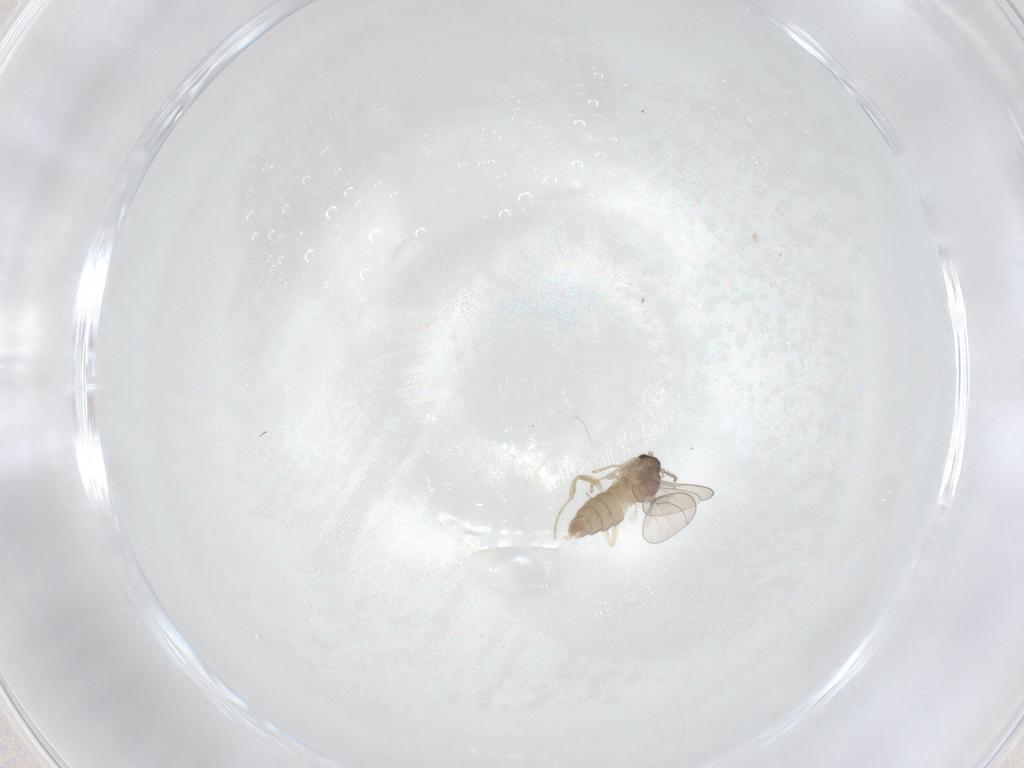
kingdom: Animalia
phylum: Arthropoda
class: Insecta
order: Diptera
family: Cecidomyiidae
